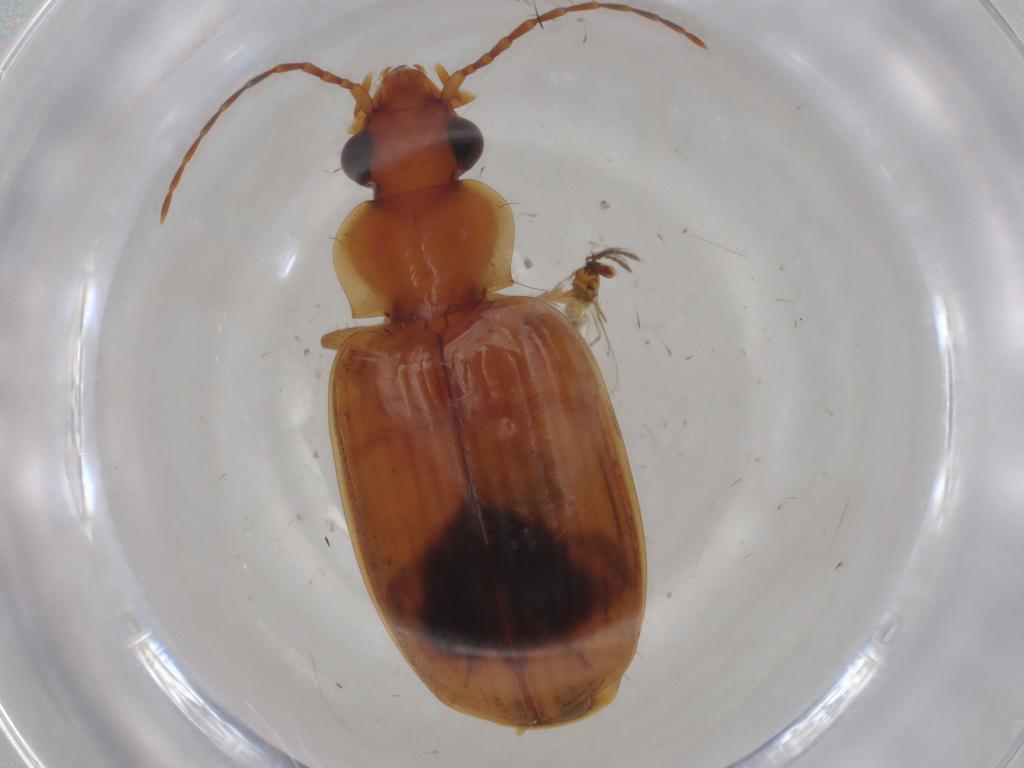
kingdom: Animalia
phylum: Arthropoda
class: Insecta
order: Coleoptera
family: Carabidae
